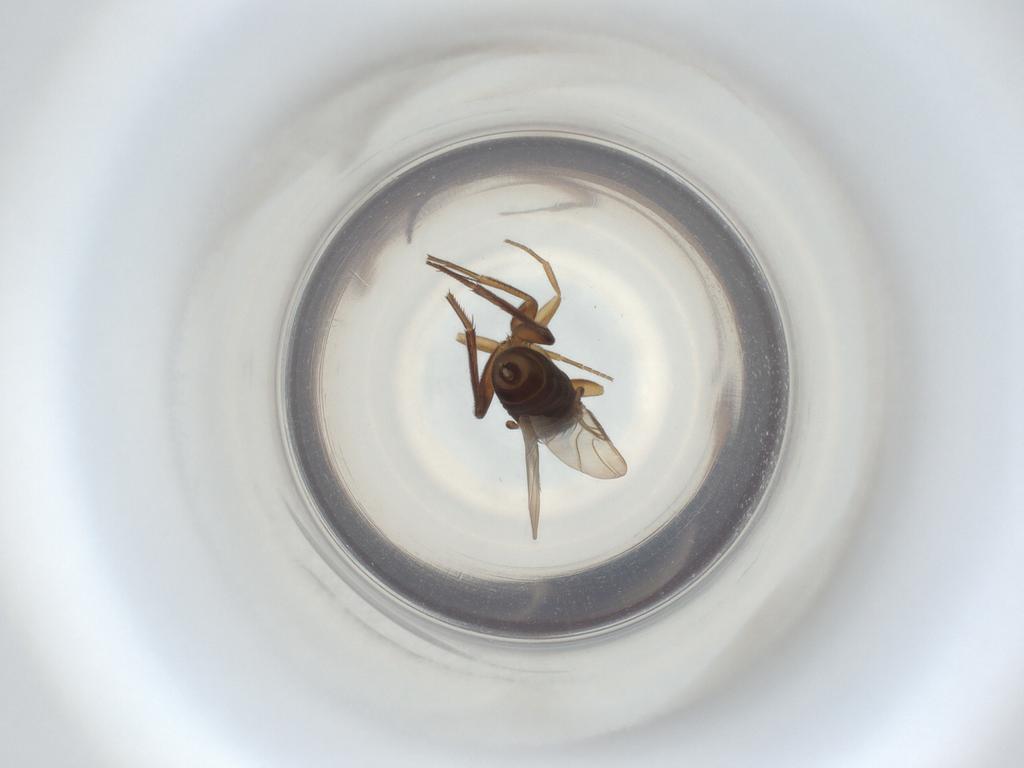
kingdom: Animalia
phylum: Arthropoda
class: Insecta
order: Diptera
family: Phoridae
